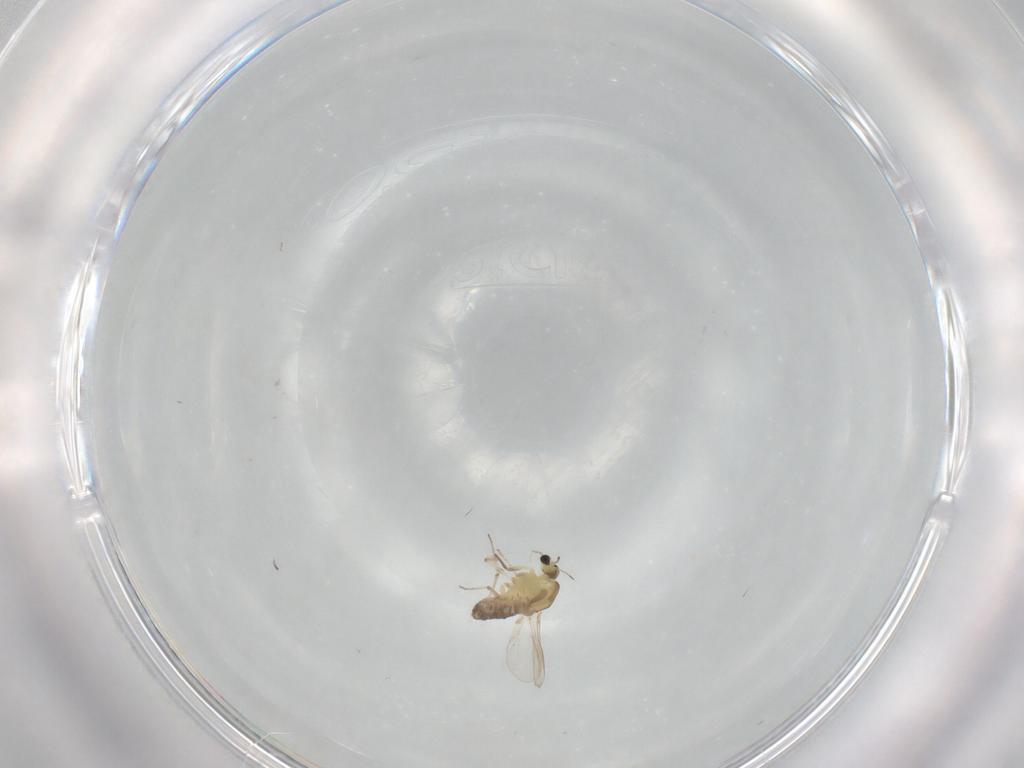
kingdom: Animalia
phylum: Arthropoda
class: Insecta
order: Diptera
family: Chironomidae
